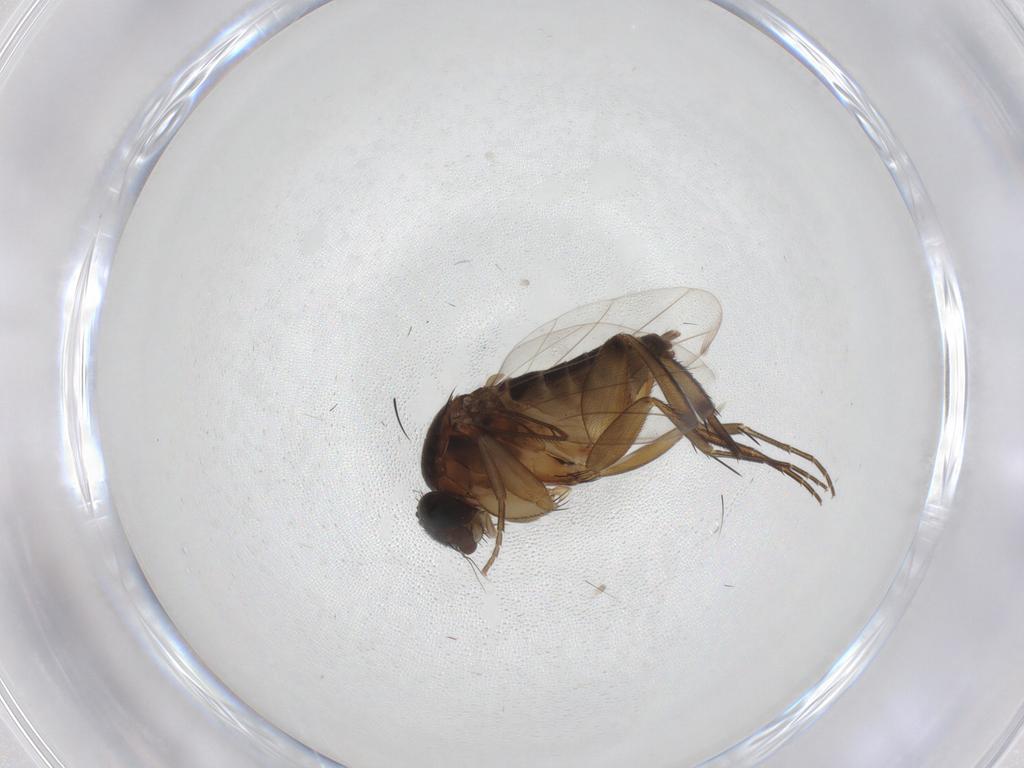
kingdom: Animalia
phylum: Arthropoda
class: Insecta
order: Diptera
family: Phoridae
